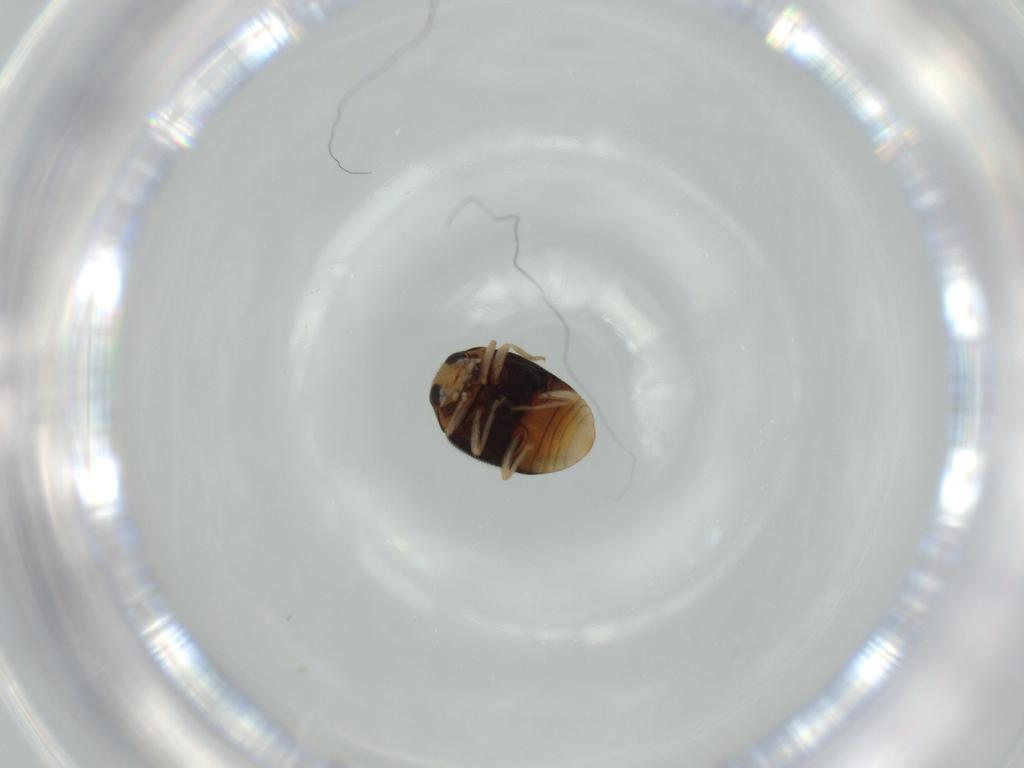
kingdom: Animalia
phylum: Arthropoda
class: Insecta
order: Coleoptera
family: Coccinellidae
